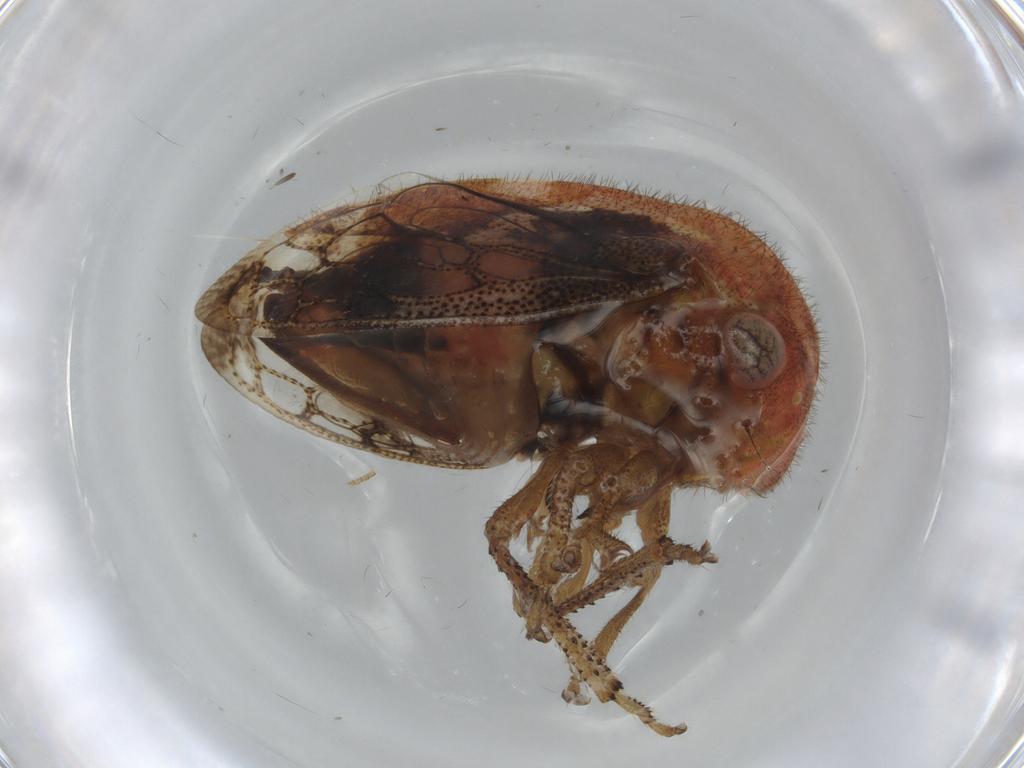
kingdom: Animalia
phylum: Arthropoda
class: Insecta
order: Hemiptera
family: Membracidae
